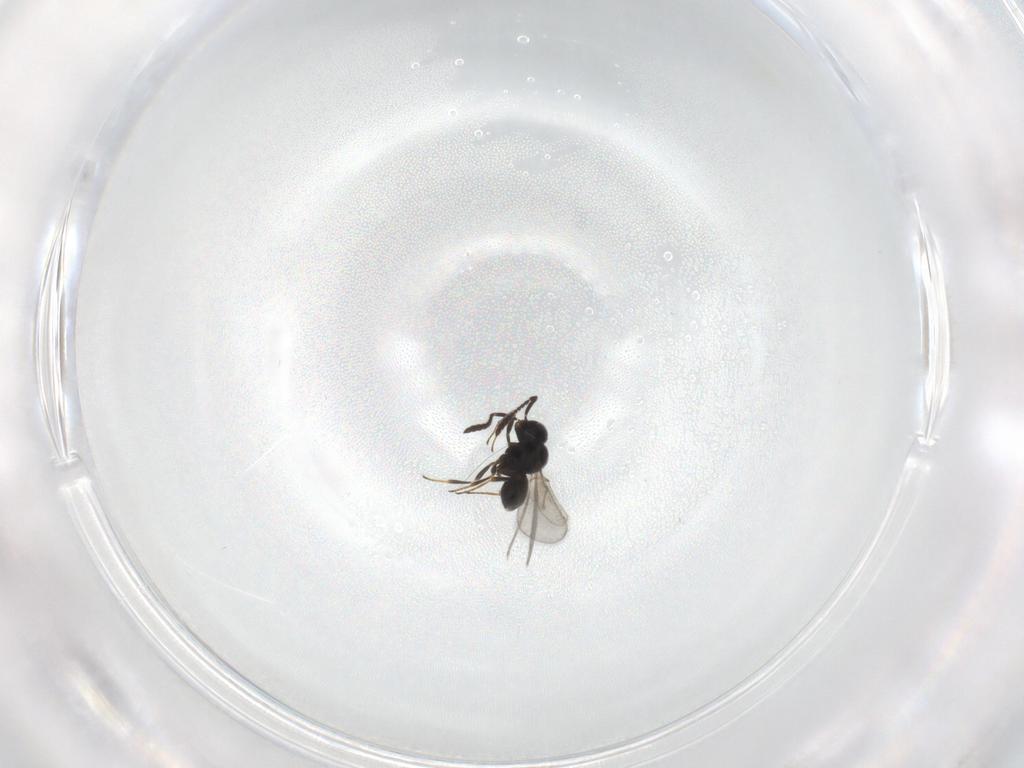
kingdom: Animalia
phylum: Arthropoda
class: Insecta
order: Hymenoptera
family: Scelionidae
